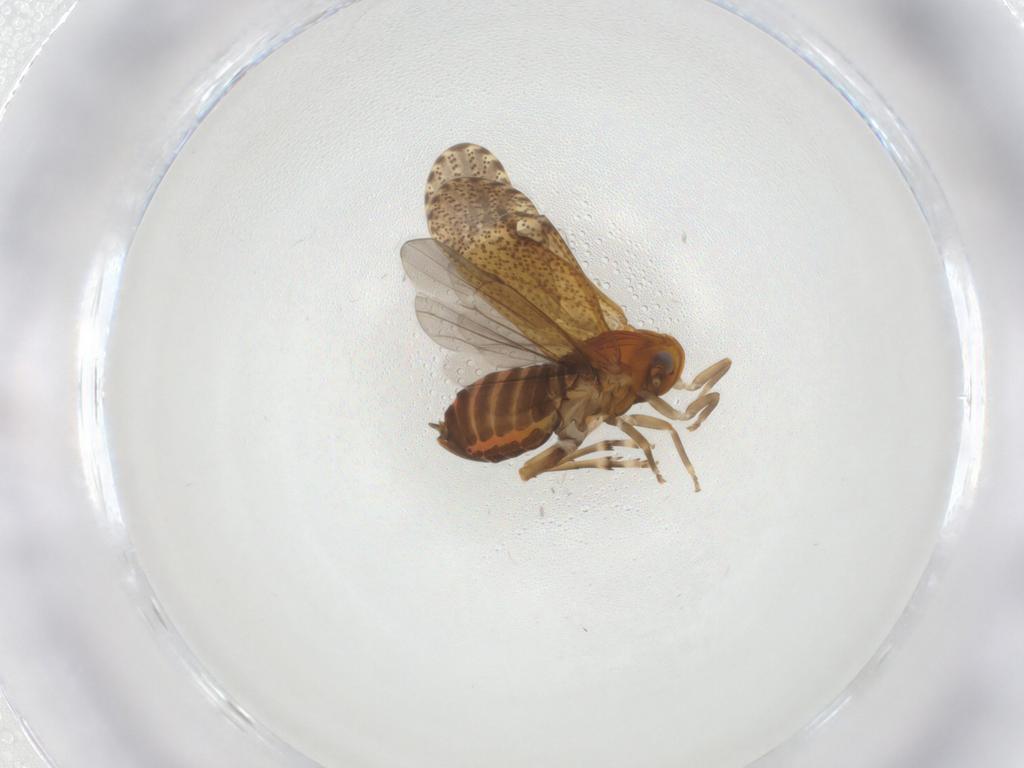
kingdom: Animalia
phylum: Arthropoda
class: Insecta
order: Hemiptera
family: Delphacidae
